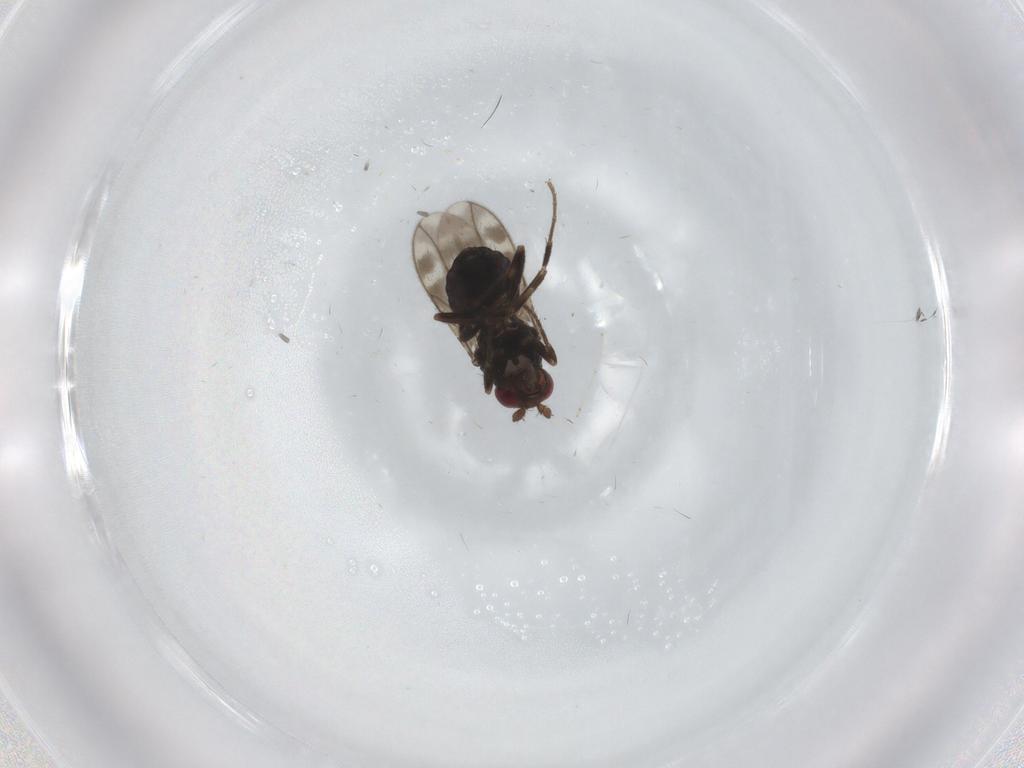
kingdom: Animalia
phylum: Arthropoda
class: Insecta
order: Diptera
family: Sphaeroceridae
